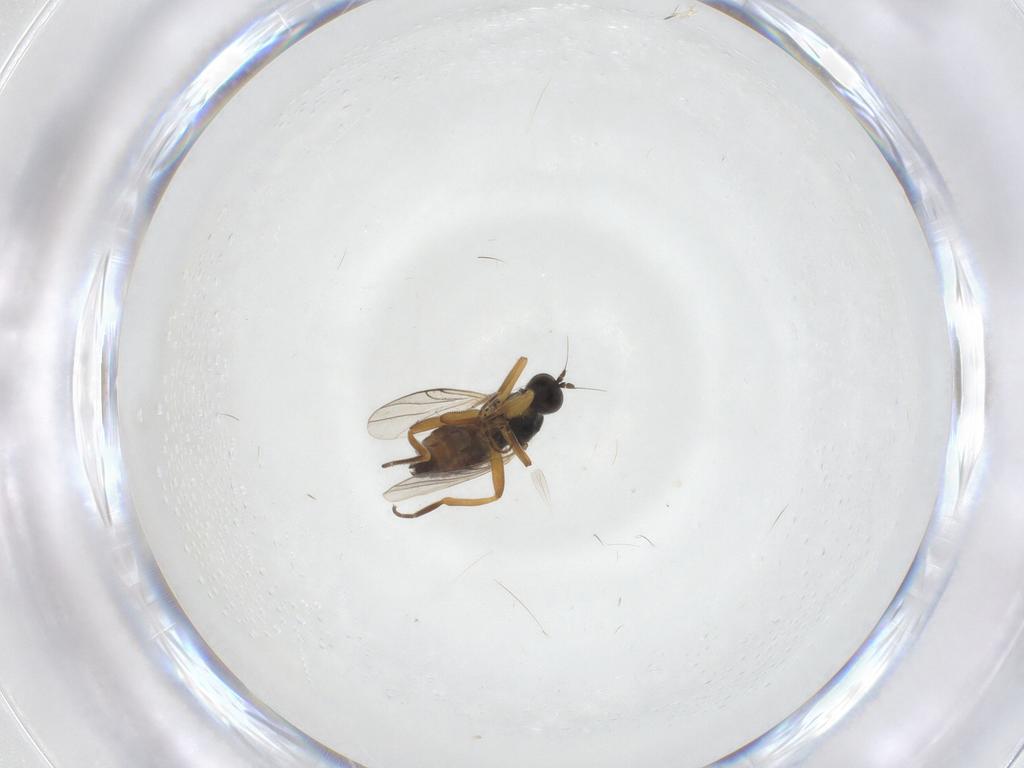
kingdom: Animalia
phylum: Arthropoda
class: Insecta
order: Diptera
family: Hybotidae
